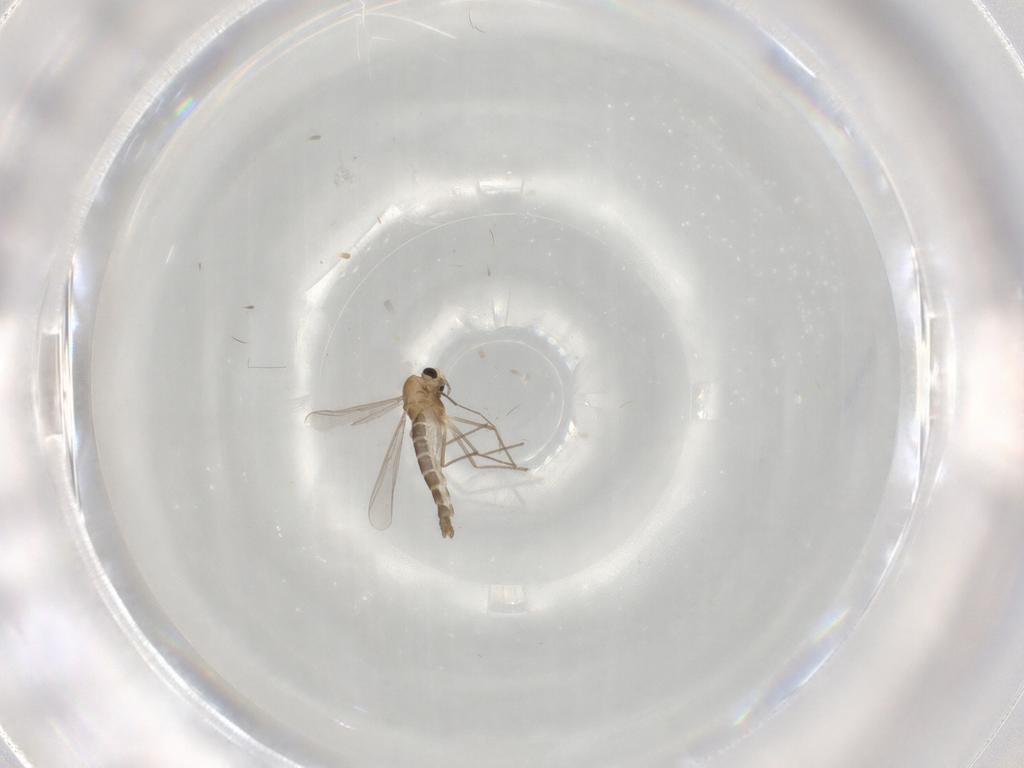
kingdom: Animalia
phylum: Arthropoda
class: Insecta
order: Diptera
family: Chironomidae
